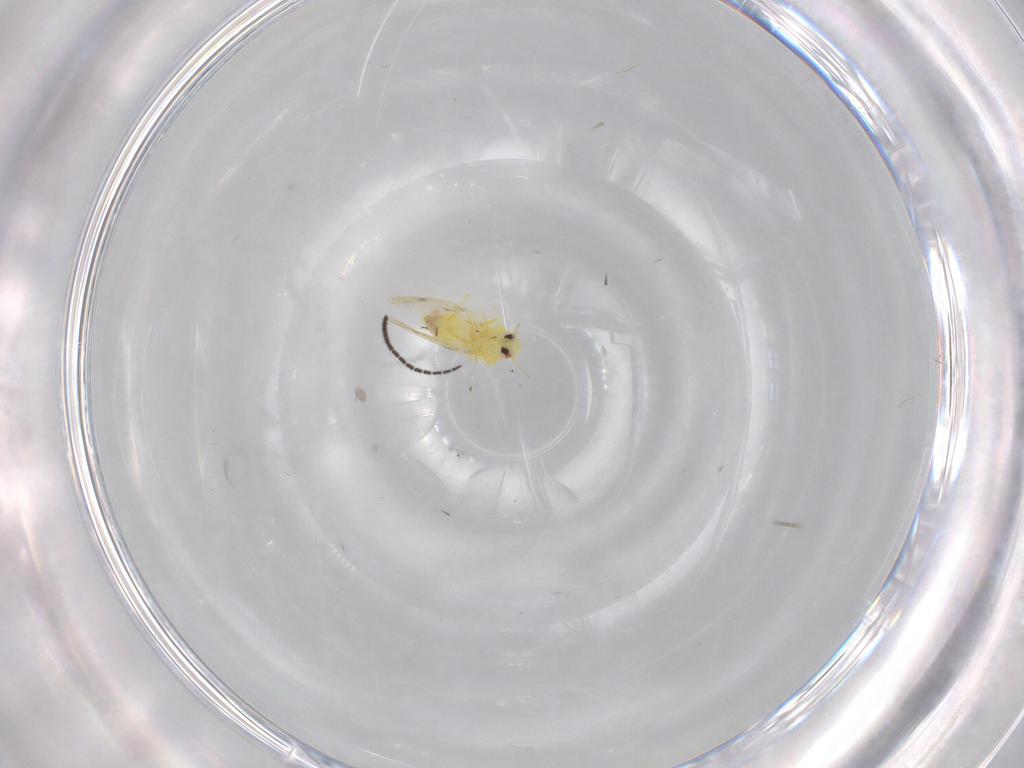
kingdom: Animalia
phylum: Arthropoda
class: Insecta
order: Hemiptera
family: Aleyrodidae
